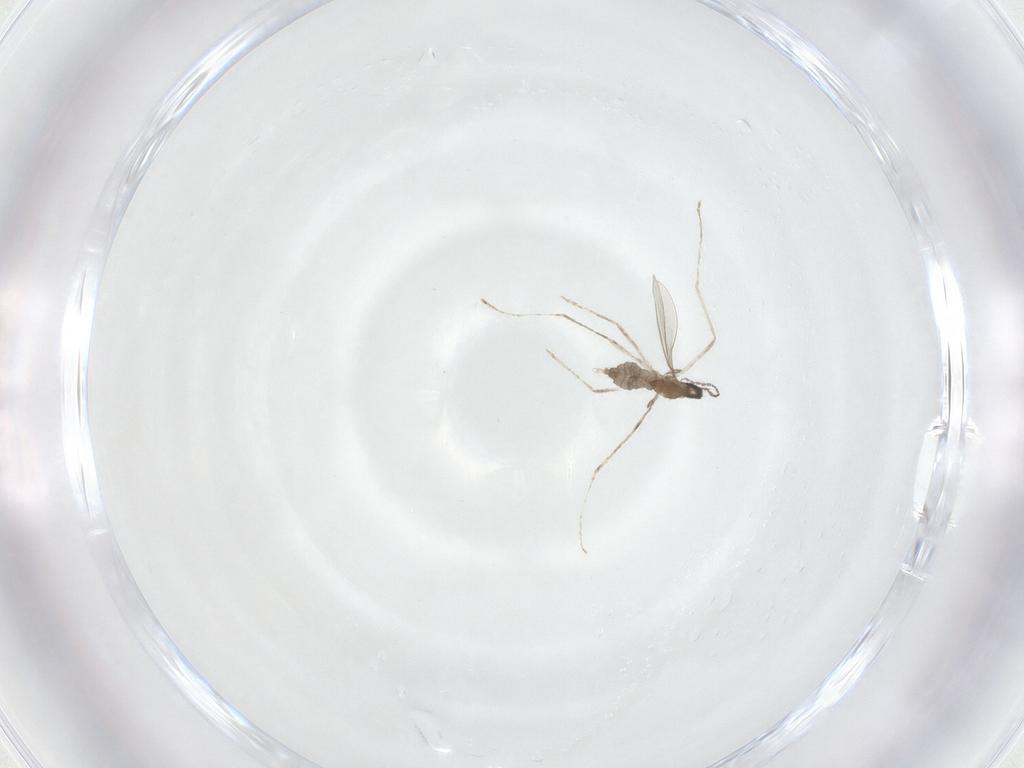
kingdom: Animalia
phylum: Arthropoda
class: Insecta
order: Diptera
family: Cecidomyiidae
